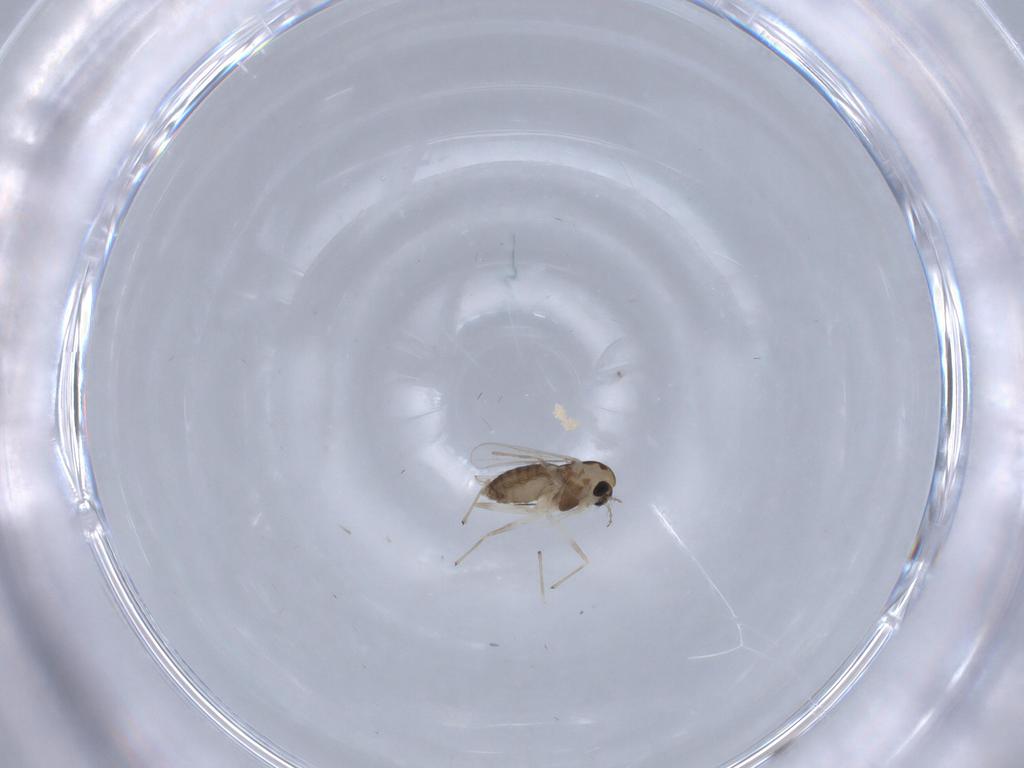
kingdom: Animalia
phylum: Arthropoda
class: Insecta
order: Diptera
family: Chironomidae
